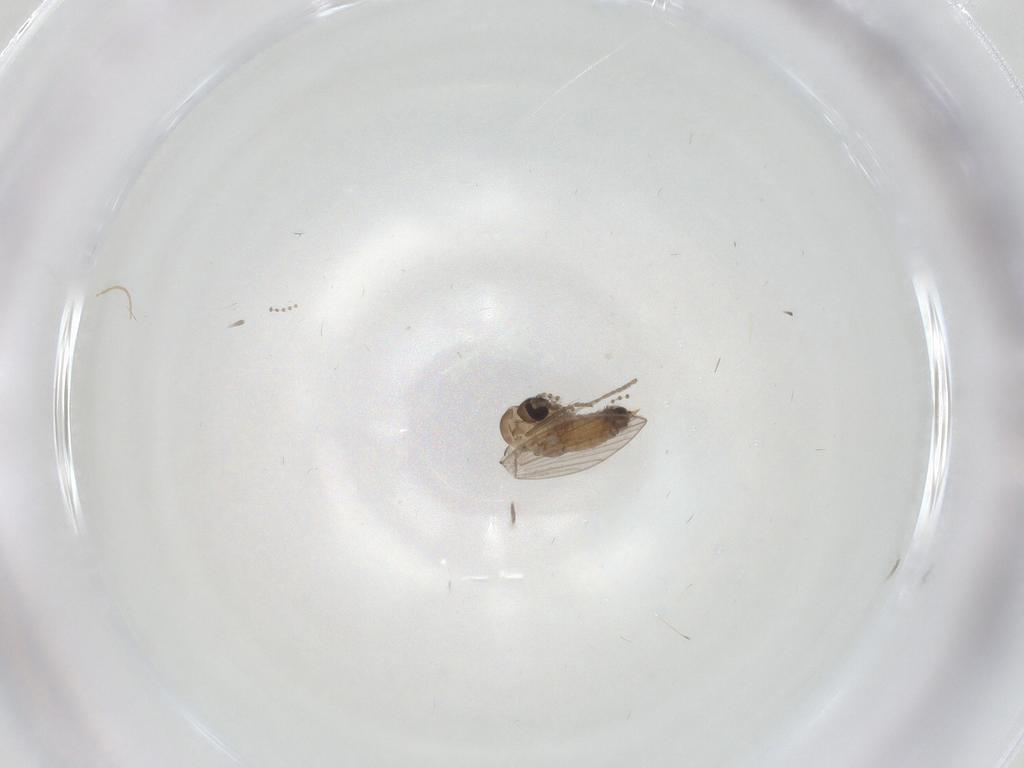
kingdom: Animalia
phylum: Arthropoda
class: Insecta
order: Diptera
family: Psychodidae
